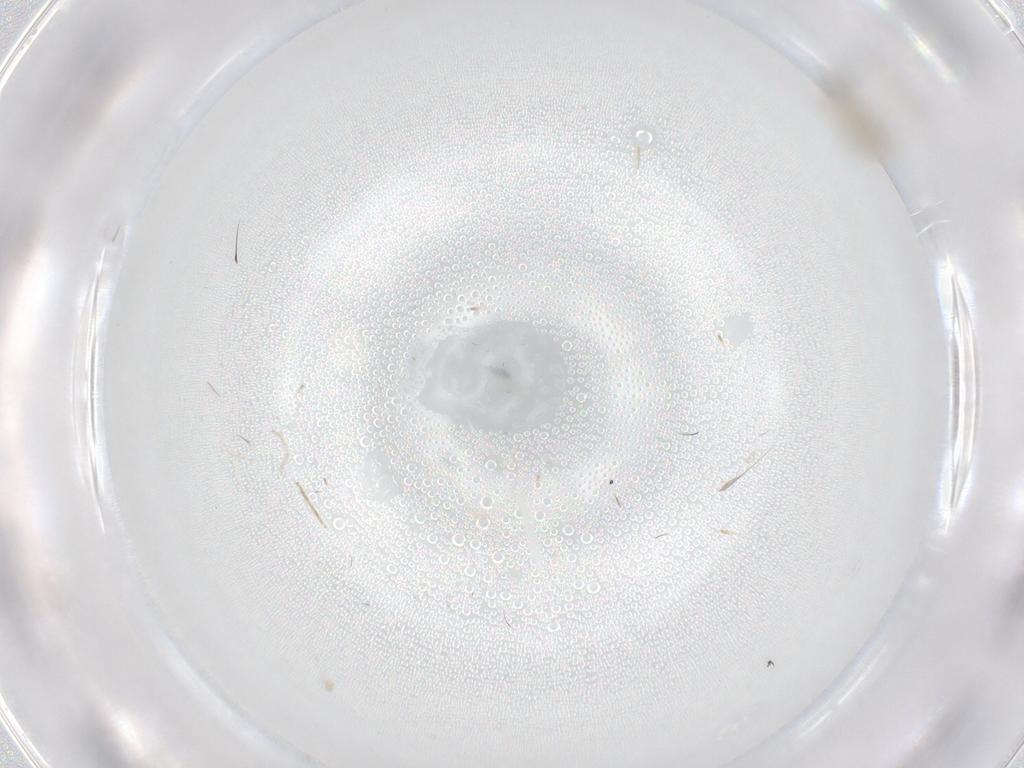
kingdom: Animalia
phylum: Arthropoda
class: Insecta
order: Diptera
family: Cecidomyiidae
